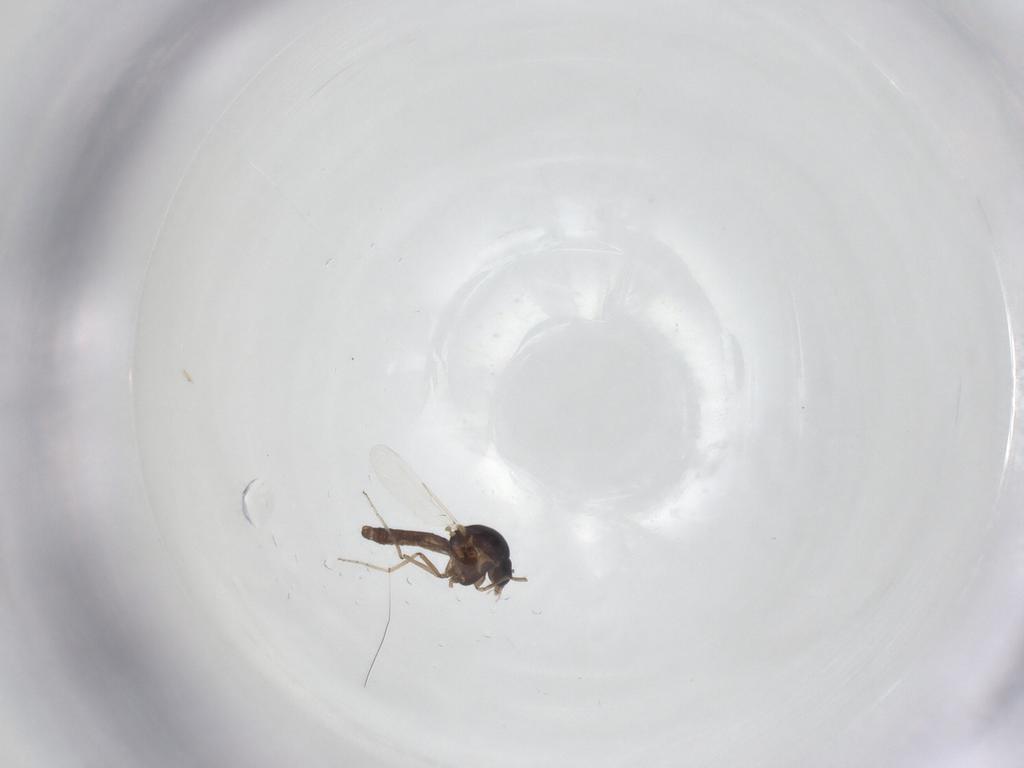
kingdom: Animalia
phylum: Arthropoda
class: Insecta
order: Diptera
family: Ceratopogonidae
